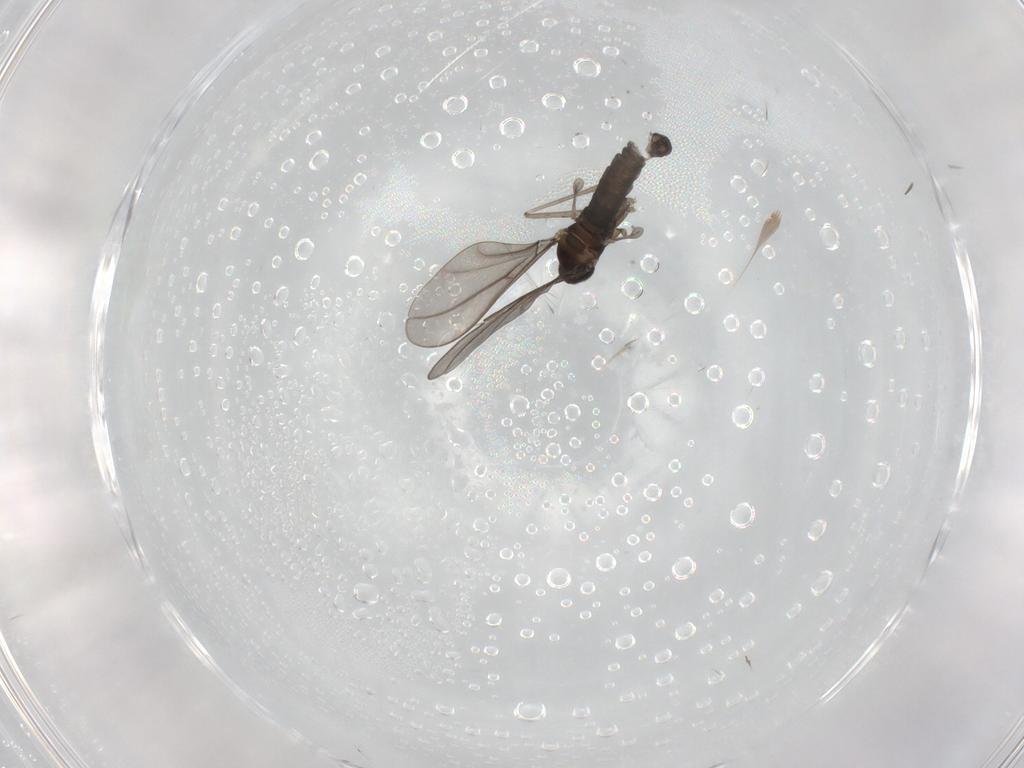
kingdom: Animalia
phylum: Arthropoda
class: Insecta
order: Diptera
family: Cecidomyiidae
